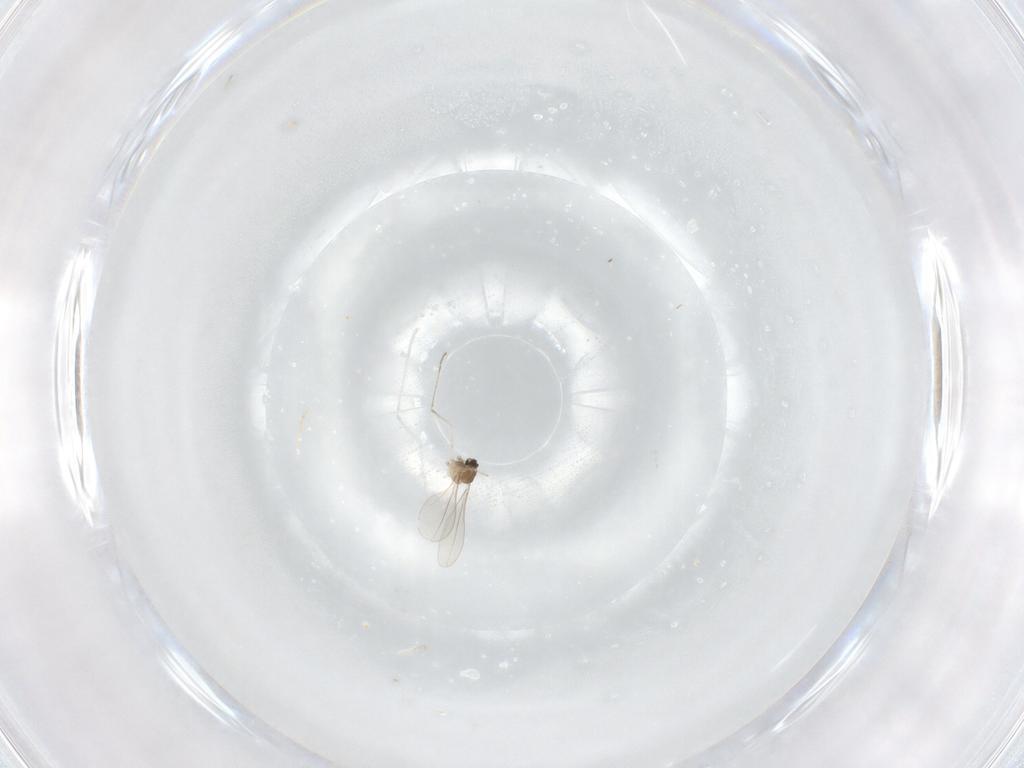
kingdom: Animalia
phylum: Arthropoda
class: Insecta
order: Diptera
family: Cecidomyiidae
